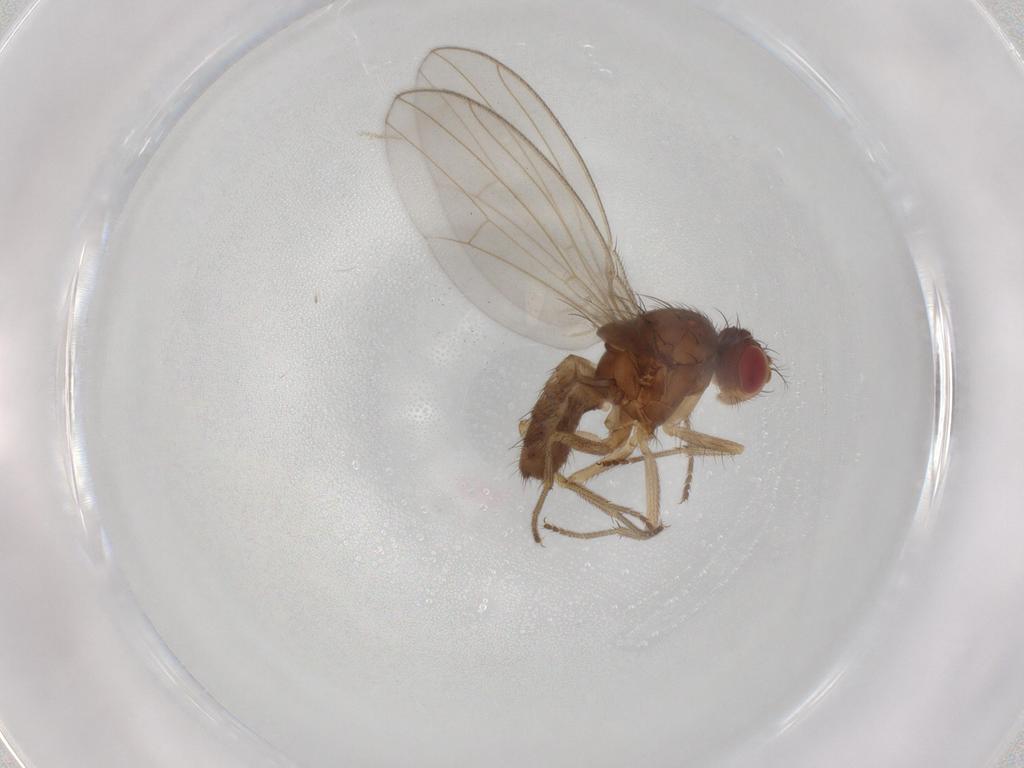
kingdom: Animalia
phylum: Arthropoda
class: Insecta
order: Diptera
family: Drosophilidae
